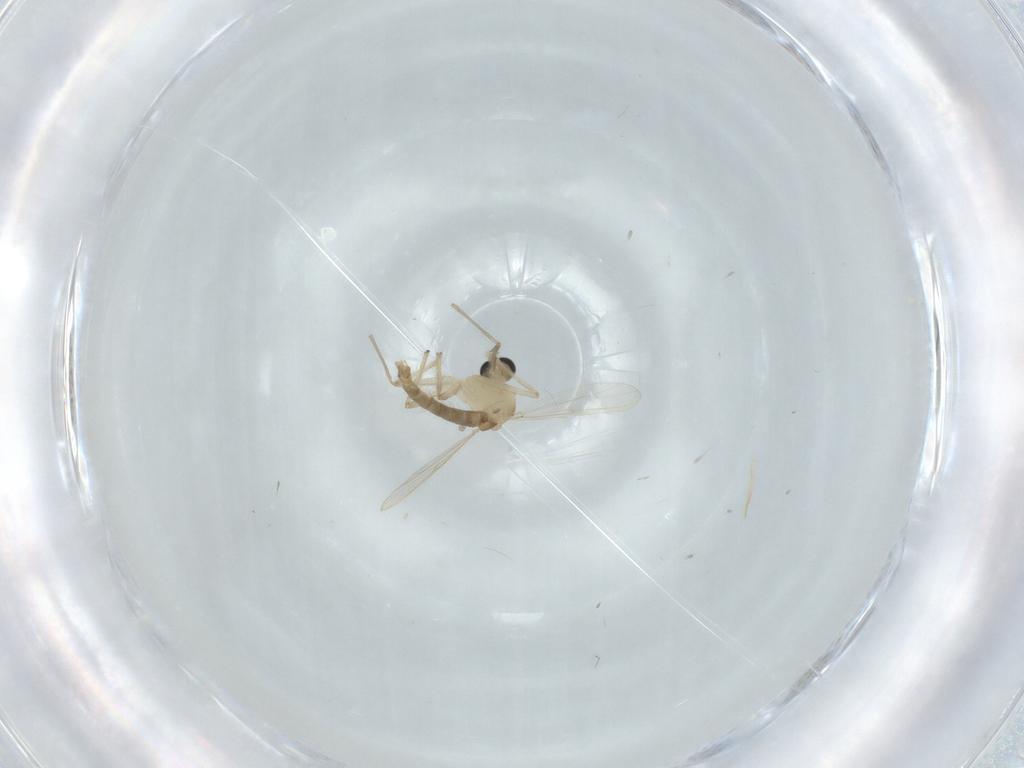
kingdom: Animalia
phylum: Arthropoda
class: Insecta
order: Diptera
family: Chironomidae
